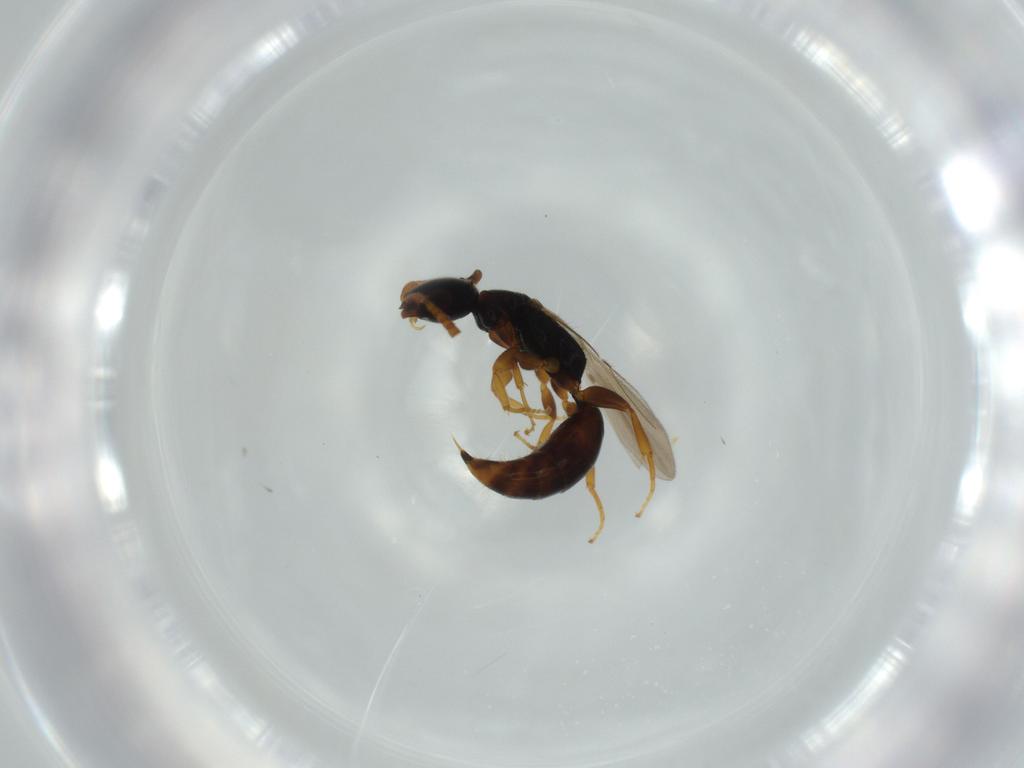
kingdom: Animalia
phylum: Arthropoda
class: Insecta
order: Hymenoptera
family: Bethylidae
